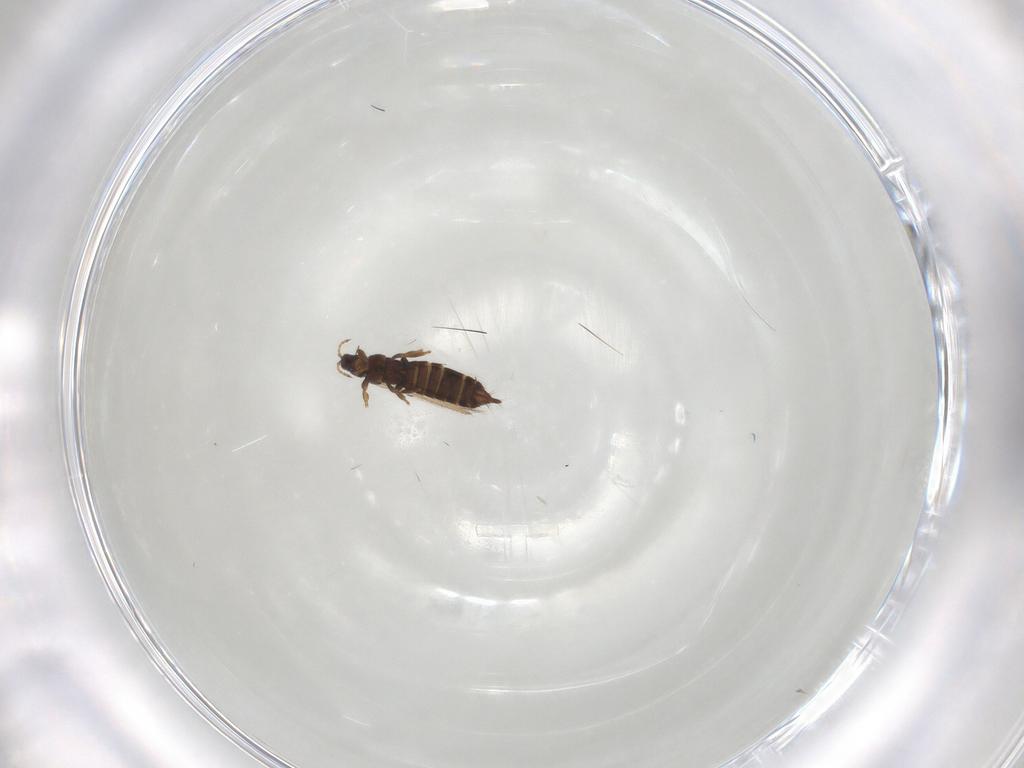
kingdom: Animalia
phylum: Arthropoda
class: Insecta
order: Thysanoptera
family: Thripidae
